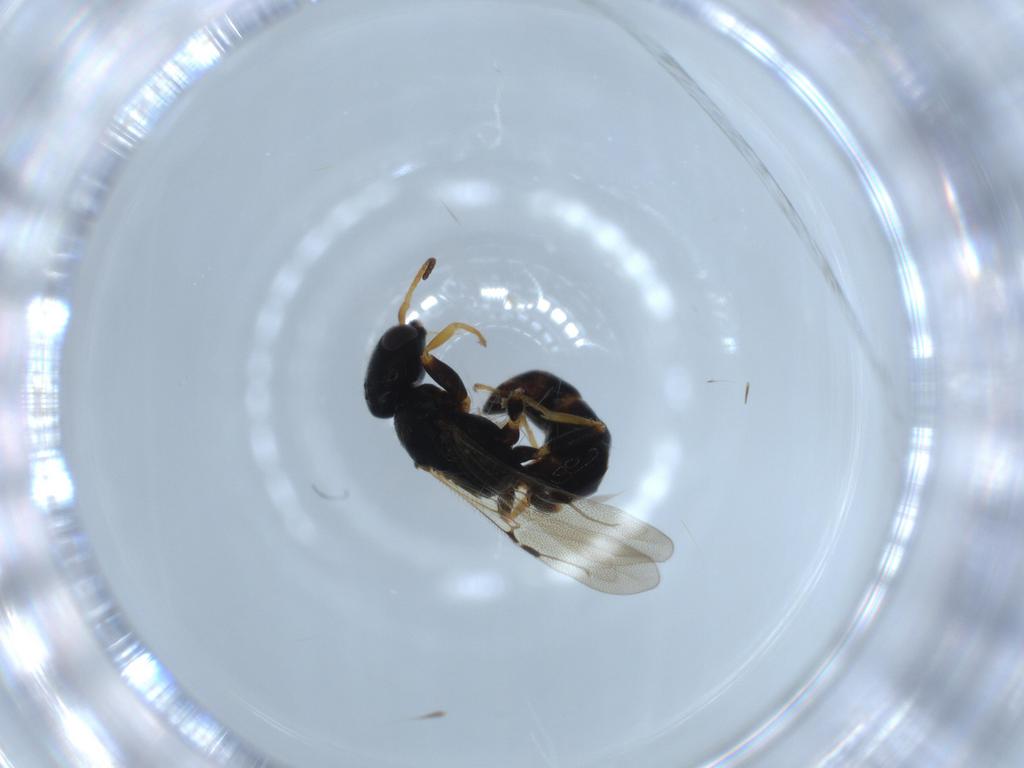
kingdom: Animalia
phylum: Arthropoda
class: Insecta
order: Hymenoptera
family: Bethylidae
